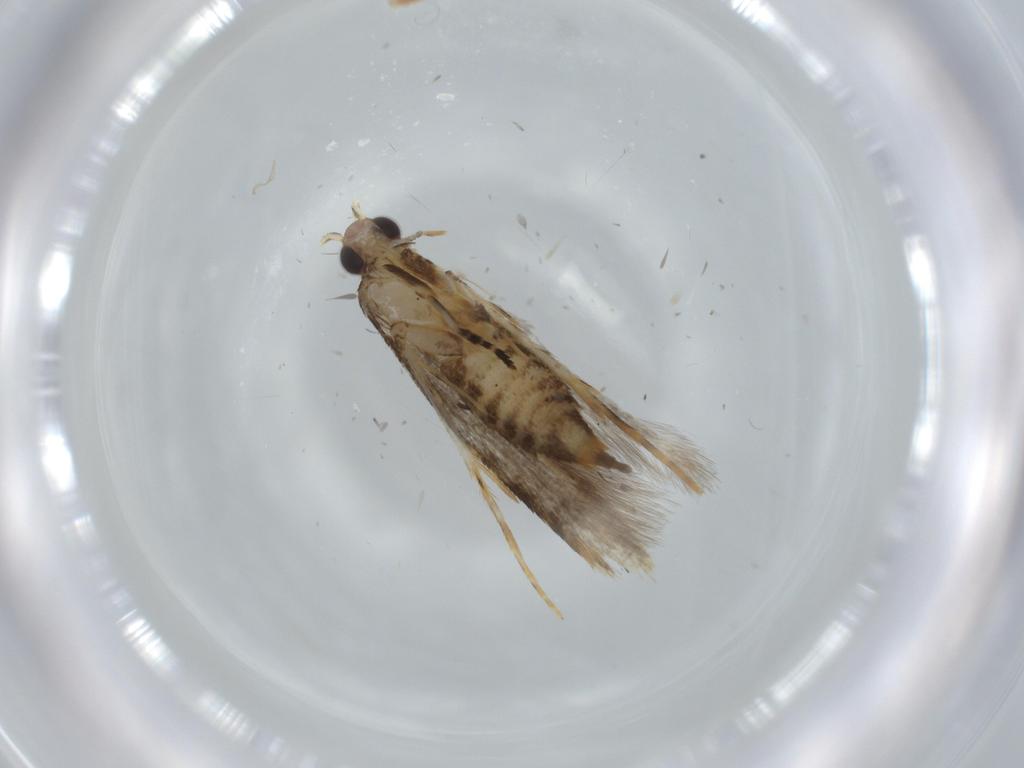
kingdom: Animalia
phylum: Arthropoda
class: Insecta
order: Lepidoptera
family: Tineidae
